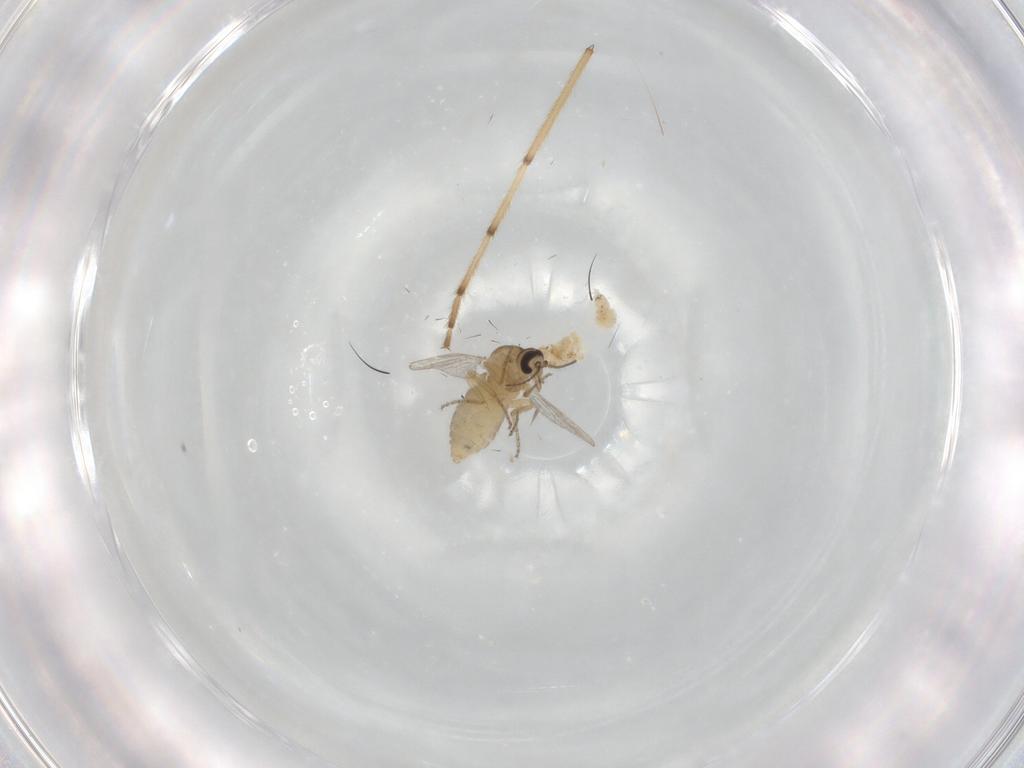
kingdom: Animalia
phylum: Arthropoda
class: Insecta
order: Diptera
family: Ceratopogonidae
